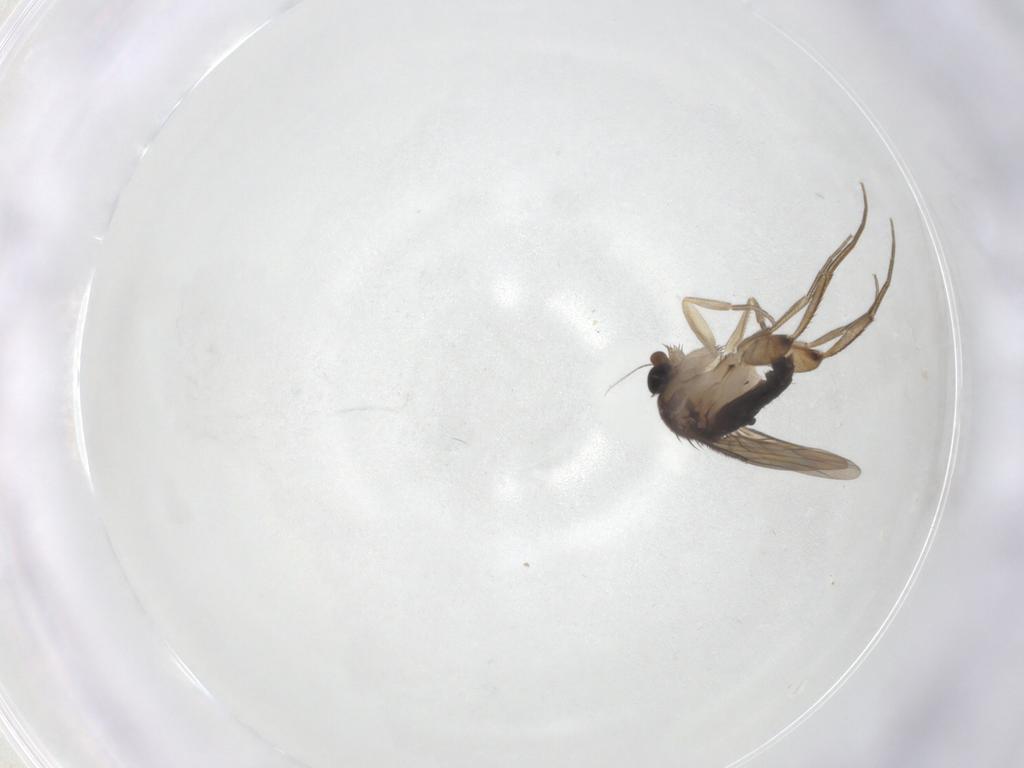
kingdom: Animalia
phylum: Arthropoda
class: Insecta
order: Diptera
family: Phoridae
